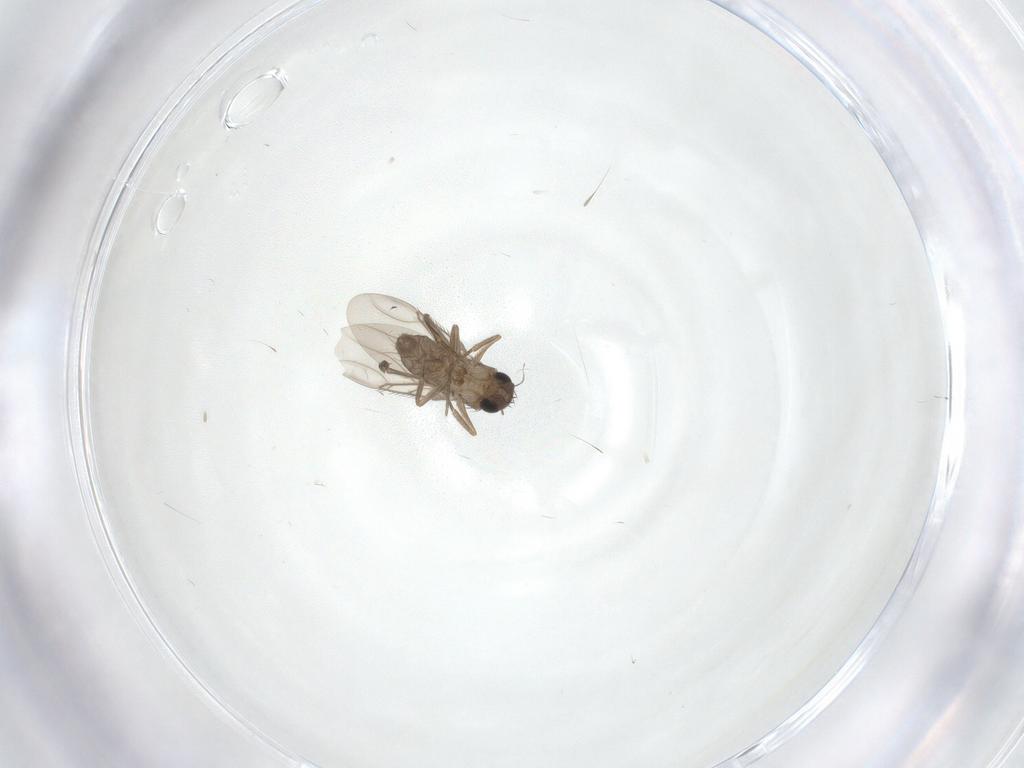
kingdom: Animalia
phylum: Arthropoda
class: Insecta
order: Diptera
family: Phoridae
